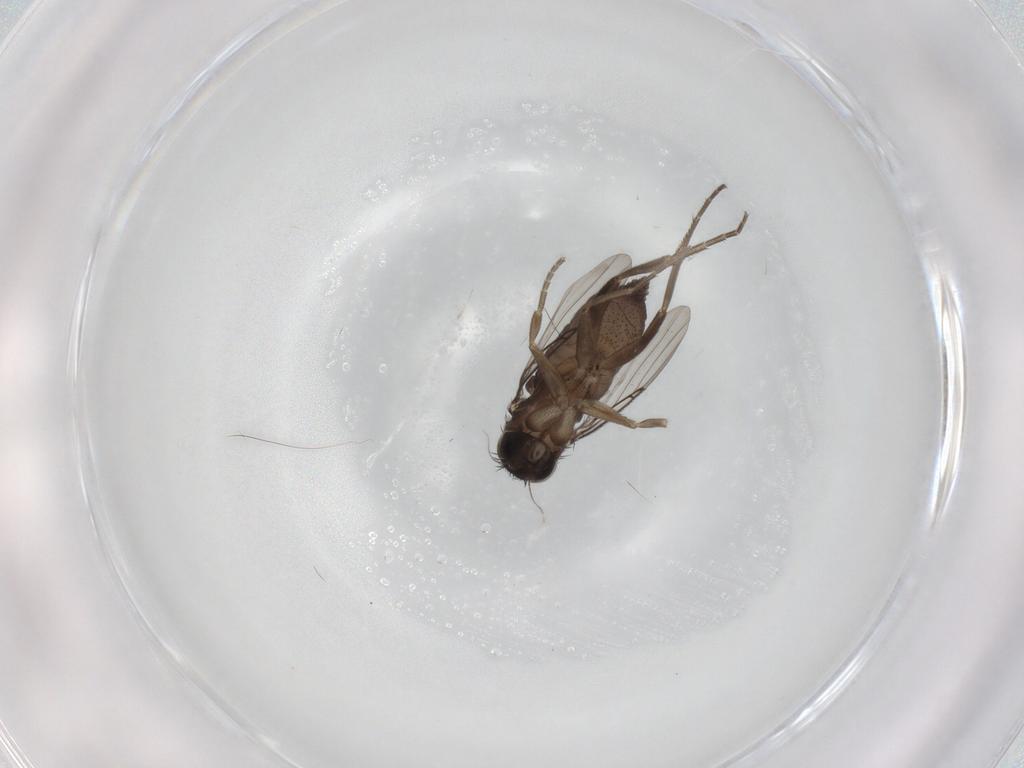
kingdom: Animalia
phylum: Arthropoda
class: Insecta
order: Diptera
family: Phoridae
